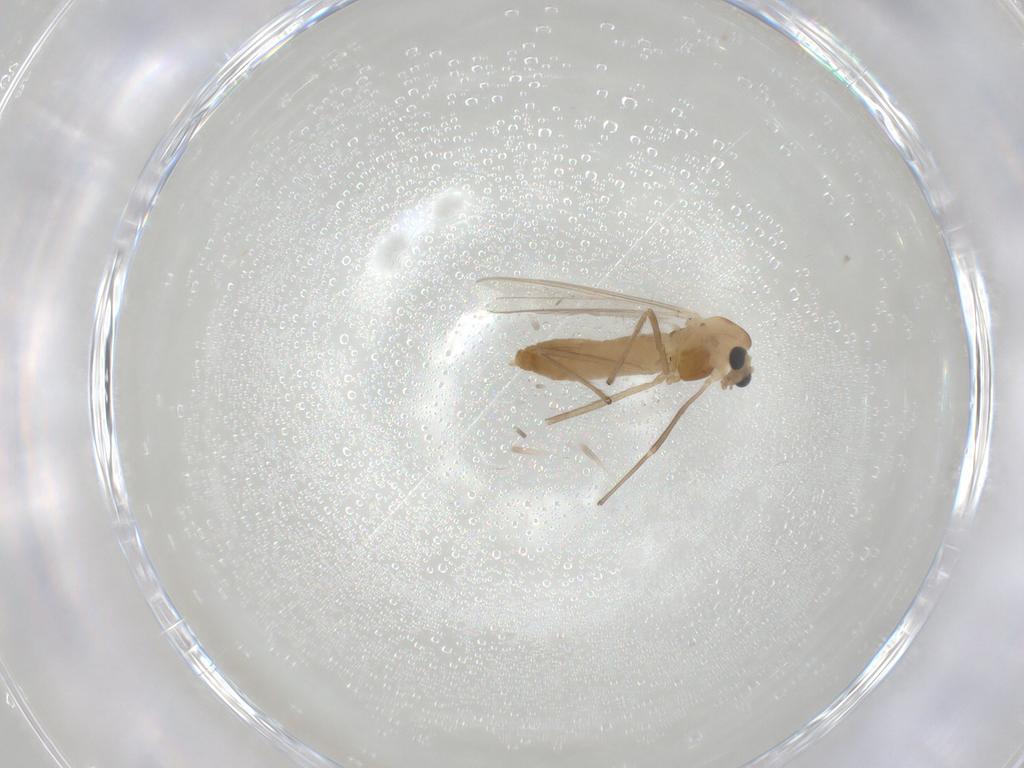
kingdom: Animalia
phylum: Arthropoda
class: Insecta
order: Diptera
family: Chironomidae
